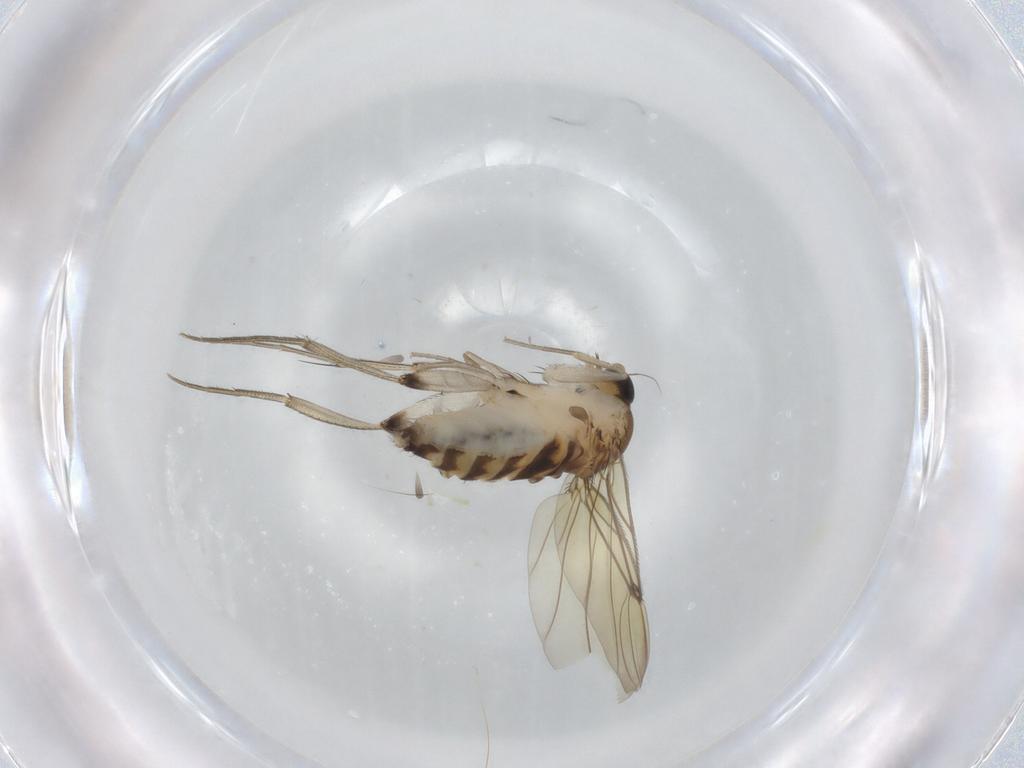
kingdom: Animalia
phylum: Arthropoda
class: Insecta
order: Diptera
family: Phoridae
